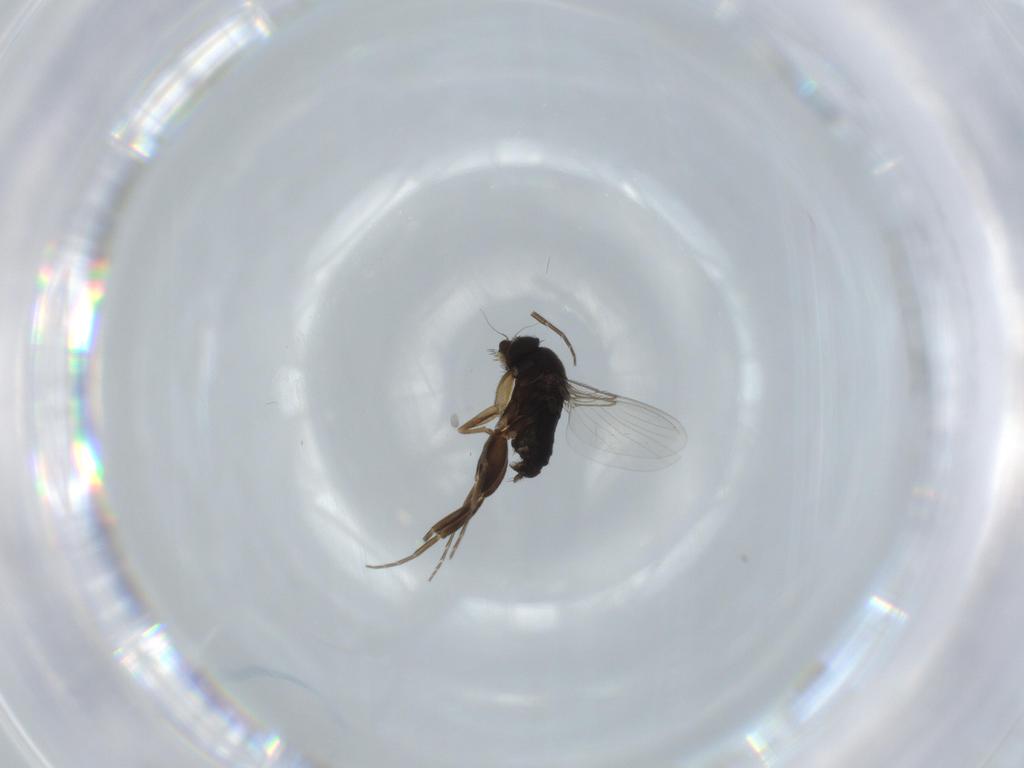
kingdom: Animalia
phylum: Arthropoda
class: Insecta
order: Diptera
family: Phoridae
